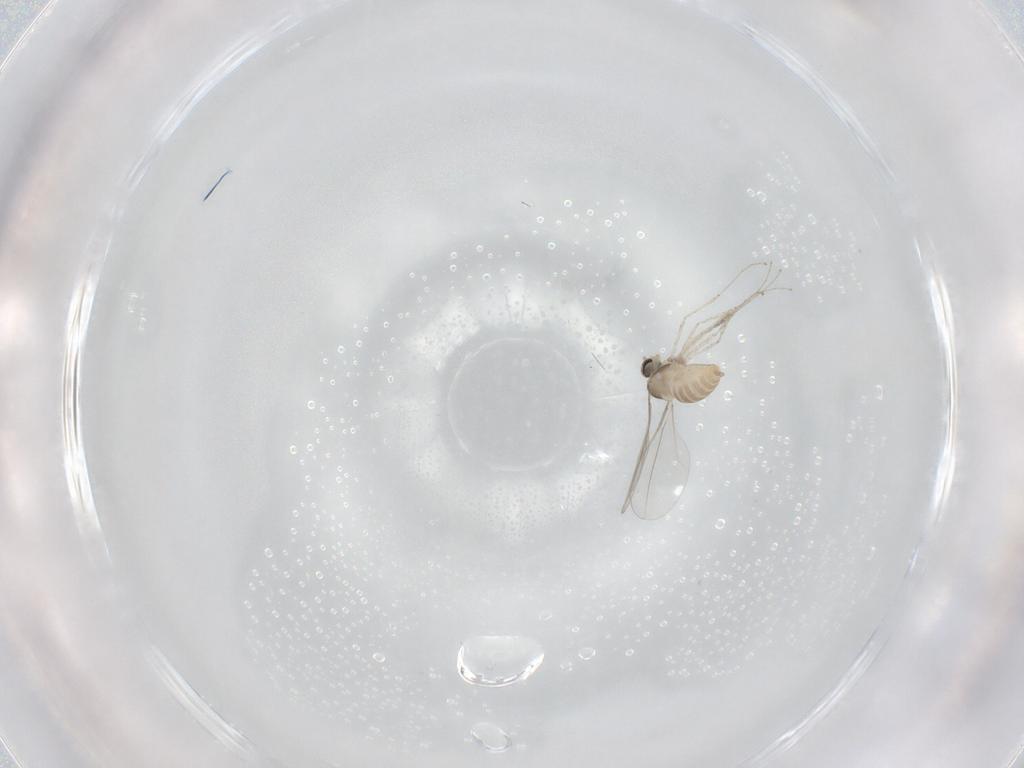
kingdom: Animalia
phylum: Arthropoda
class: Insecta
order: Diptera
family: Cecidomyiidae
